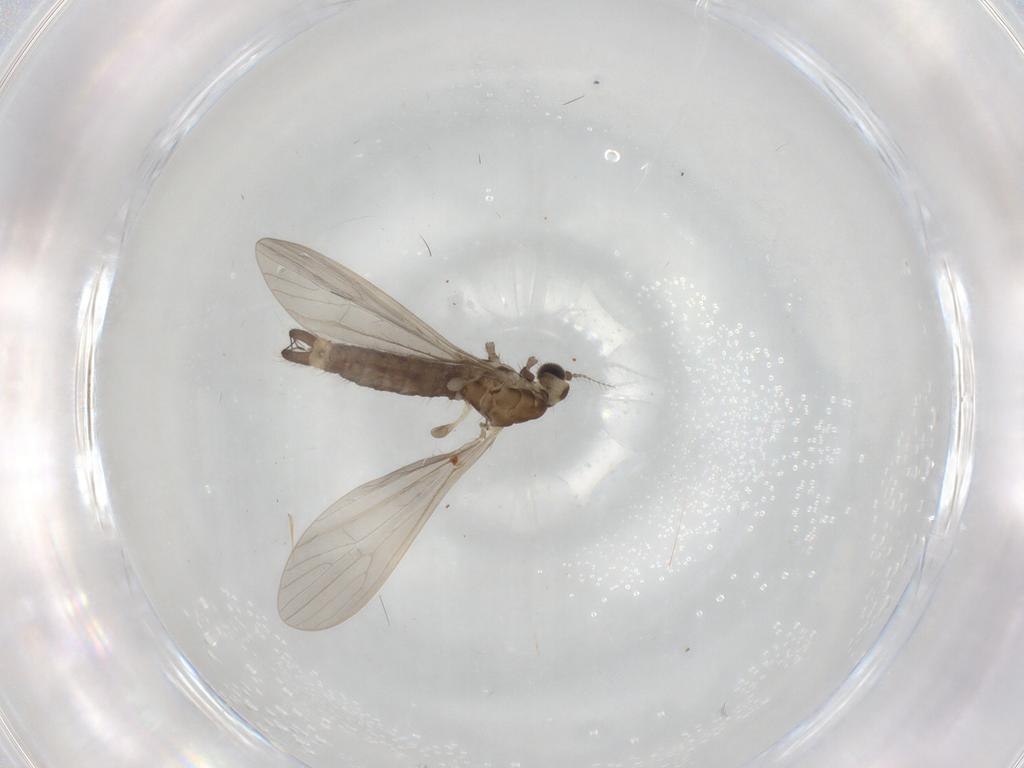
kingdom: Animalia
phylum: Arthropoda
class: Insecta
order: Diptera
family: Limoniidae
